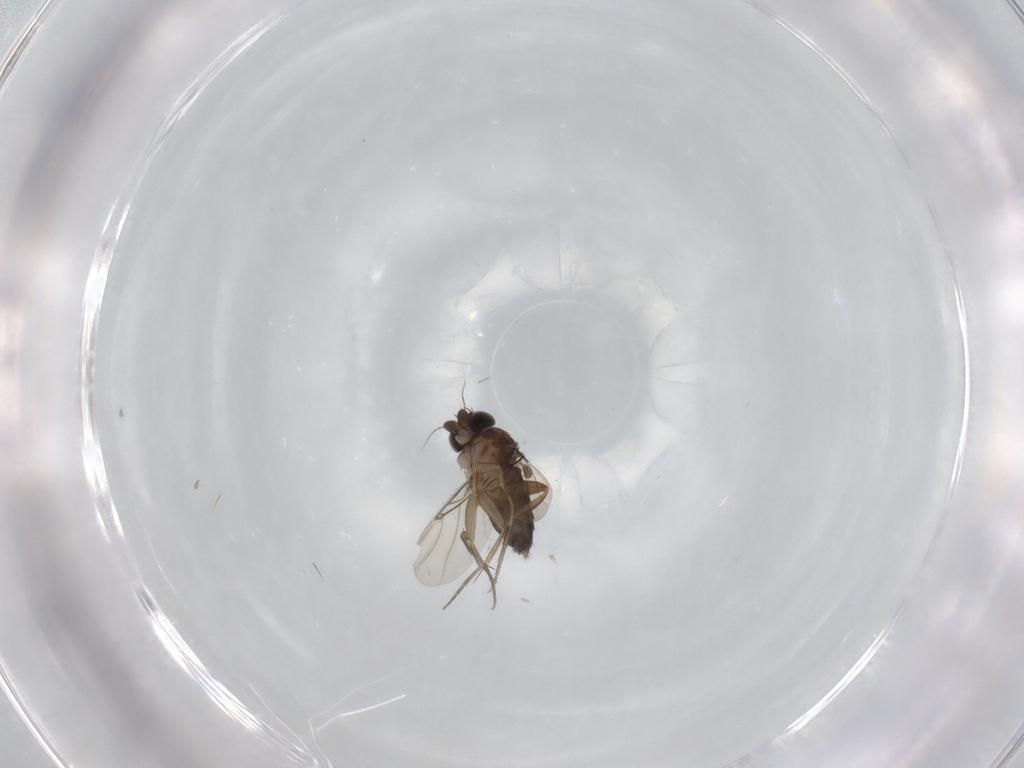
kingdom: Animalia
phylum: Arthropoda
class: Insecta
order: Diptera
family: Phoridae
